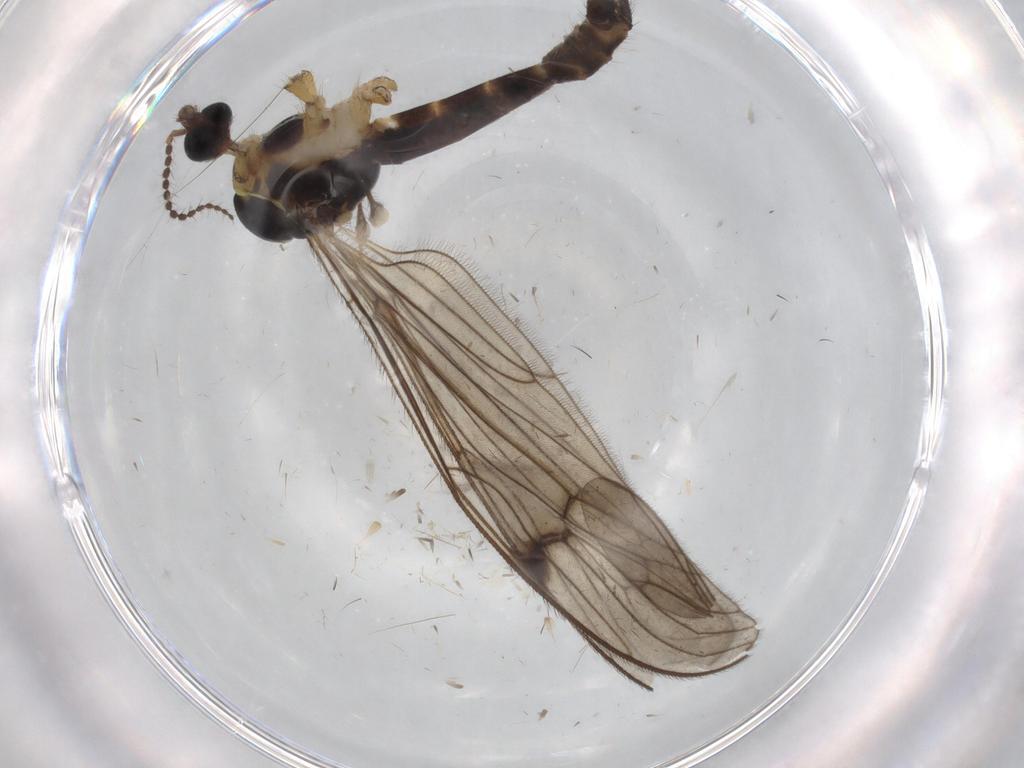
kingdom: Animalia
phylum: Arthropoda
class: Insecta
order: Diptera
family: Limoniidae
